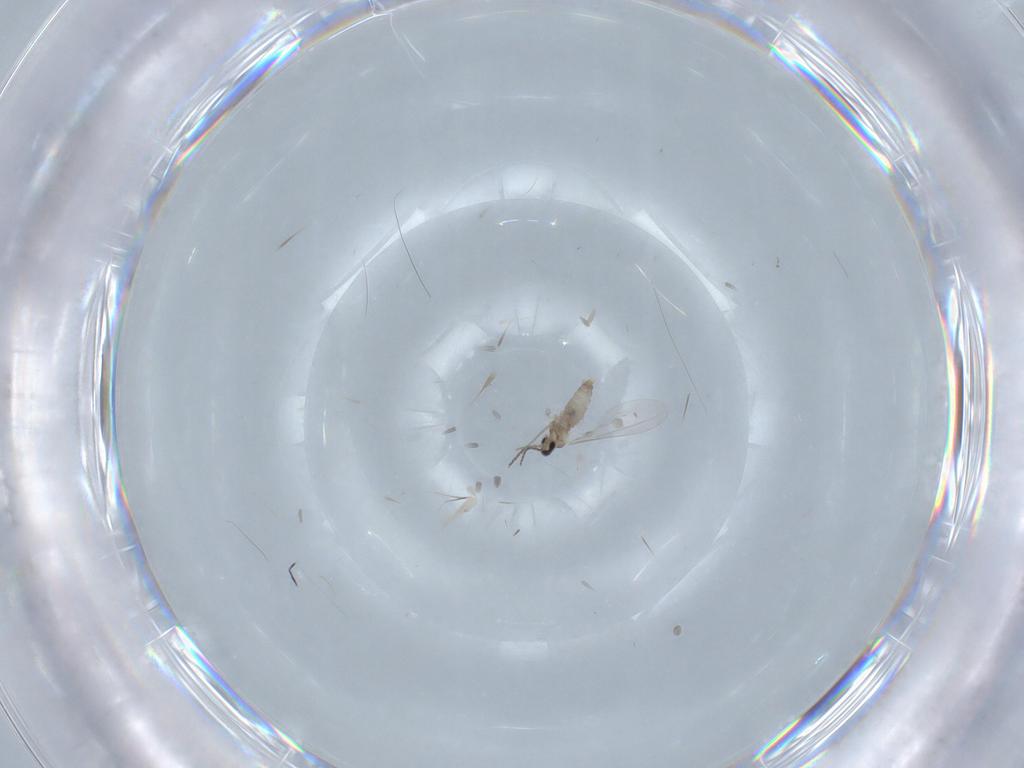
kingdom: Animalia
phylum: Arthropoda
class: Insecta
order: Diptera
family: Cecidomyiidae
